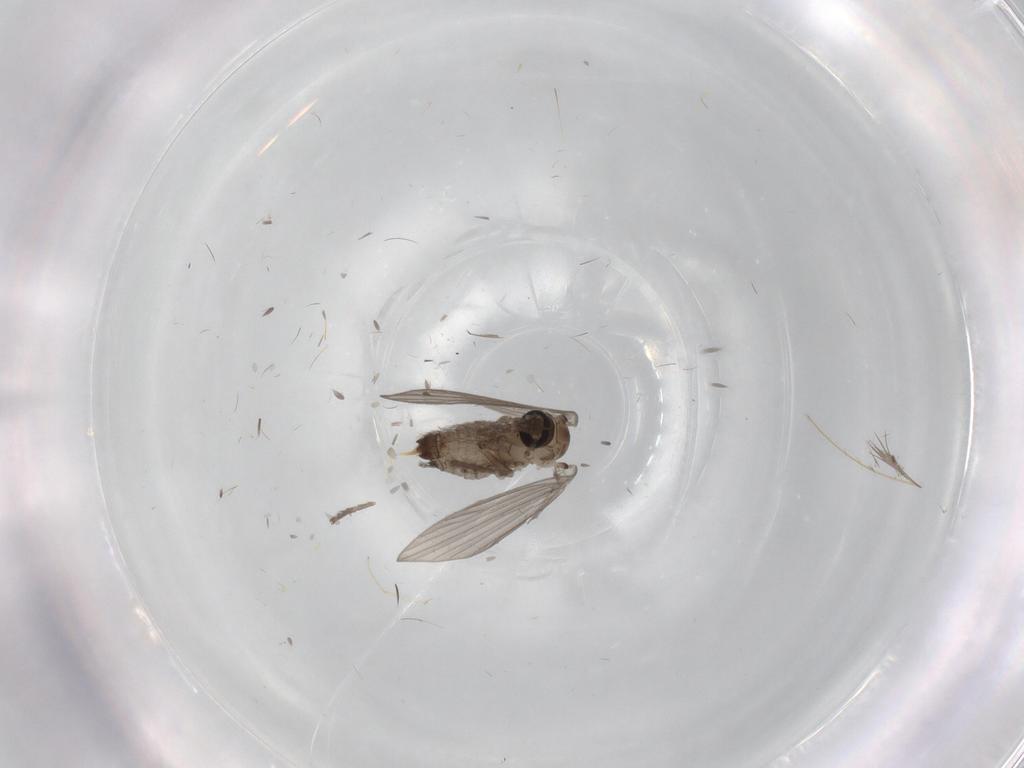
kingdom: Animalia
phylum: Arthropoda
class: Insecta
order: Diptera
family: Psychodidae
